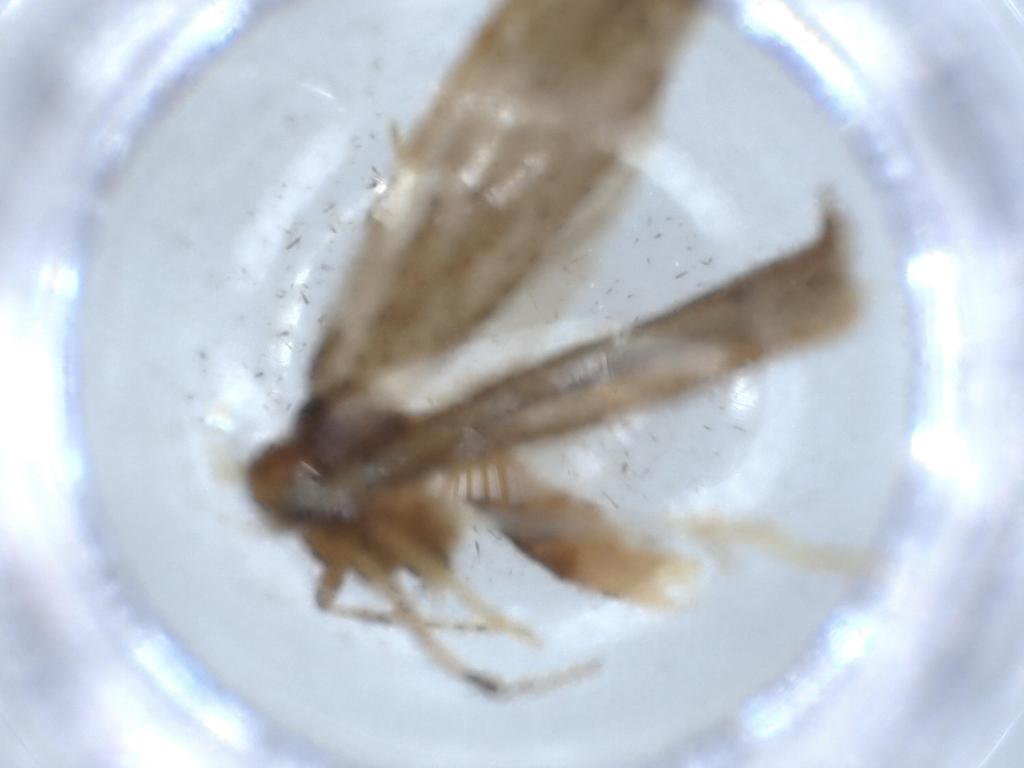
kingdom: Animalia
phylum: Arthropoda
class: Insecta
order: Lepidoptera
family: Lecithoceridae
